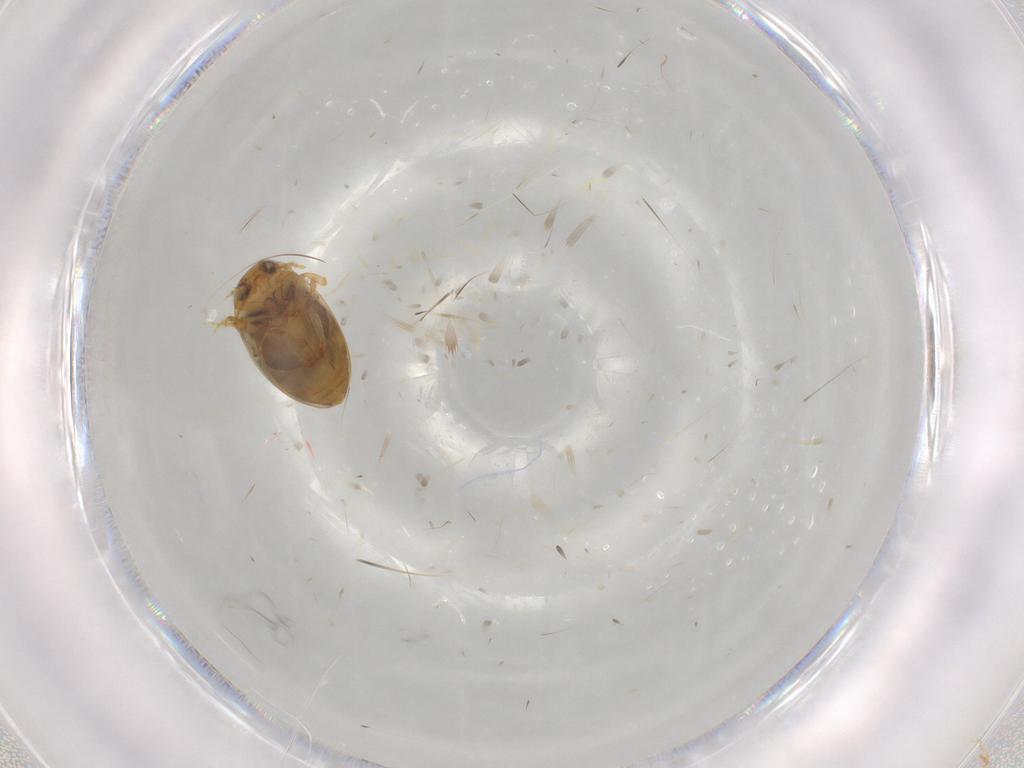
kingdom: Animalia
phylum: Arthropoda
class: Insecta
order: Coleoptera
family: Dytiscidae
